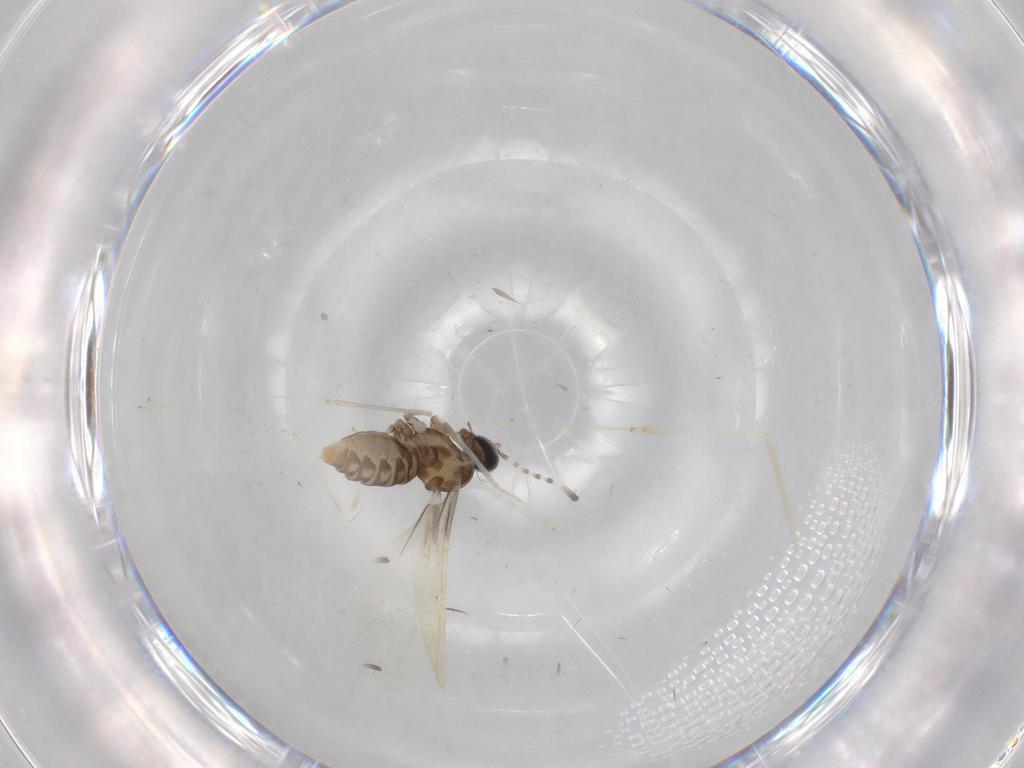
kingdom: Animalia
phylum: Arthropoda
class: Insecta
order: Diptera
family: Cecidomyiidae
